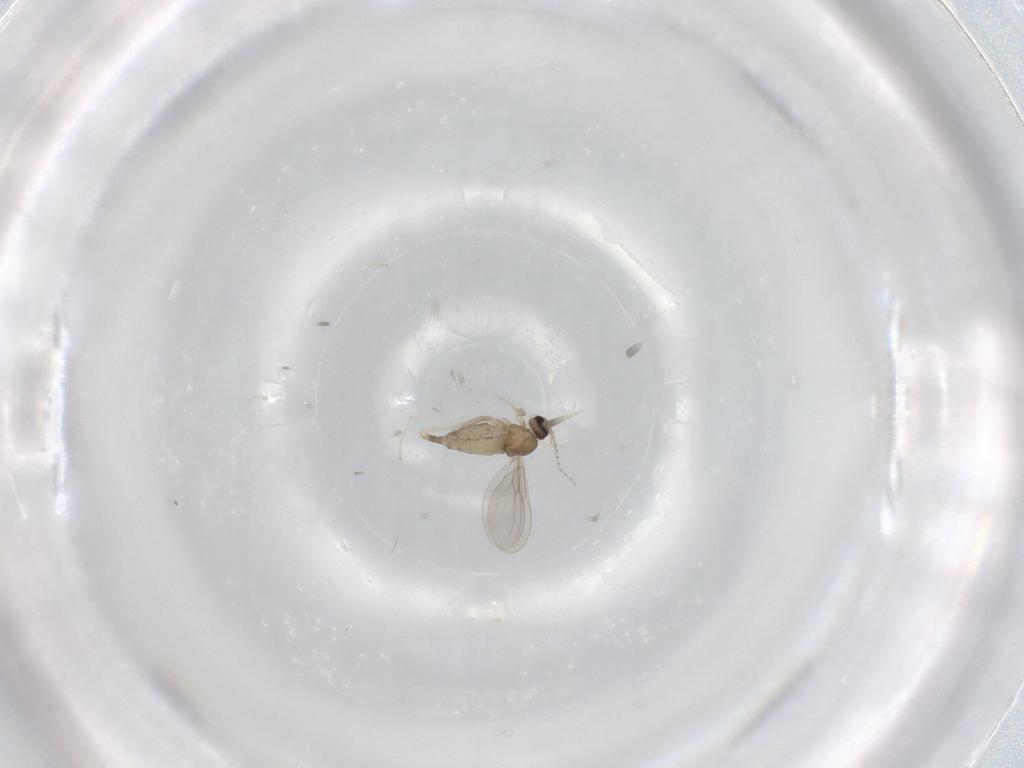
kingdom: Animalia
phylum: Arthropoda
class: Insecta
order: Diptera
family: Cecidomyiidae
